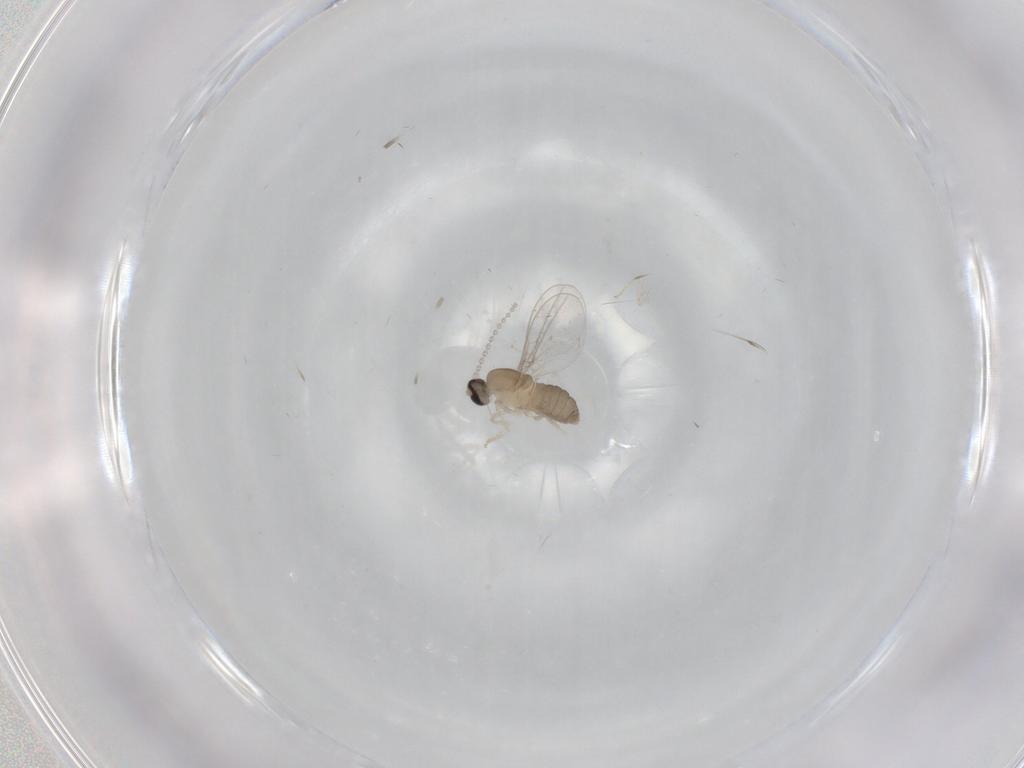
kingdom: Animalia
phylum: Arthropoda
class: Insecta
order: Diptera
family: Cecidomyiidae
